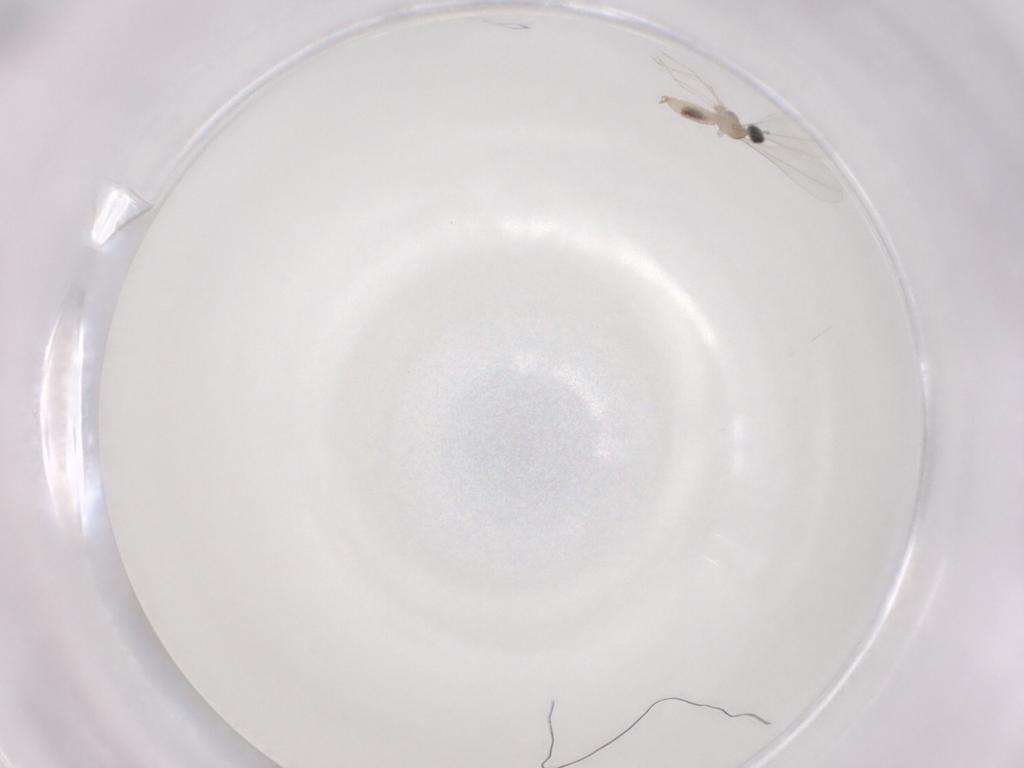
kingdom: Animalia
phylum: Arthropoda
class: Insecta
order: Diptera
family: Cecidomyiidae
